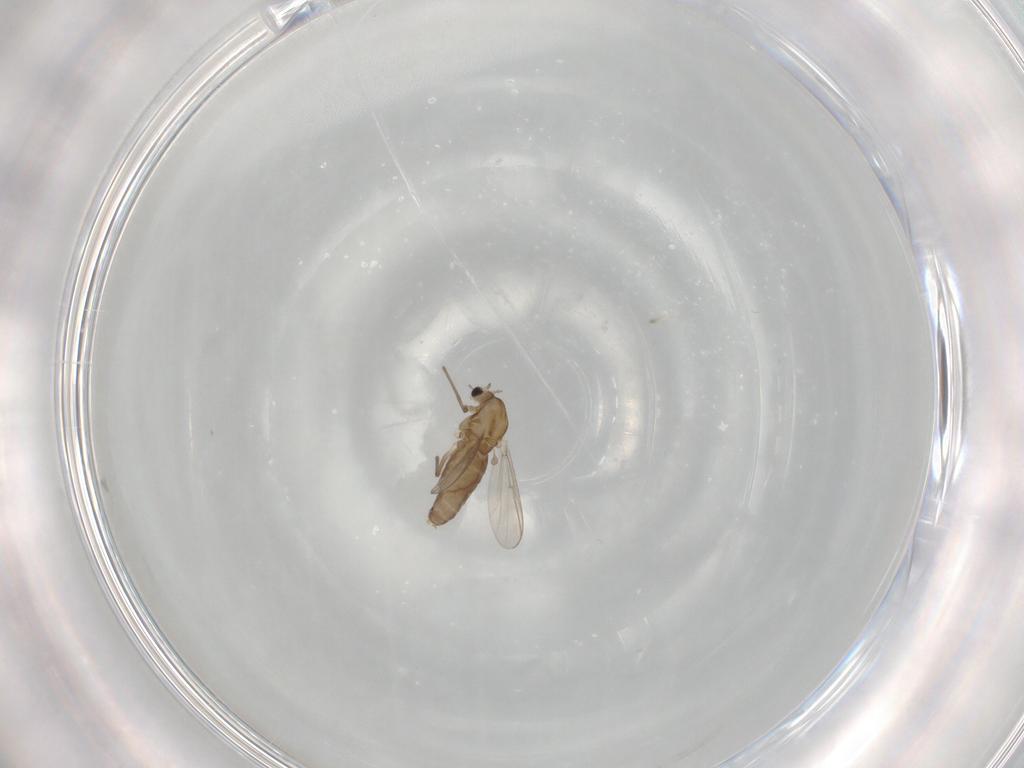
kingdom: Animalia
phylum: Arthropoda
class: Insecta
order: Diptera
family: Chironomidae
